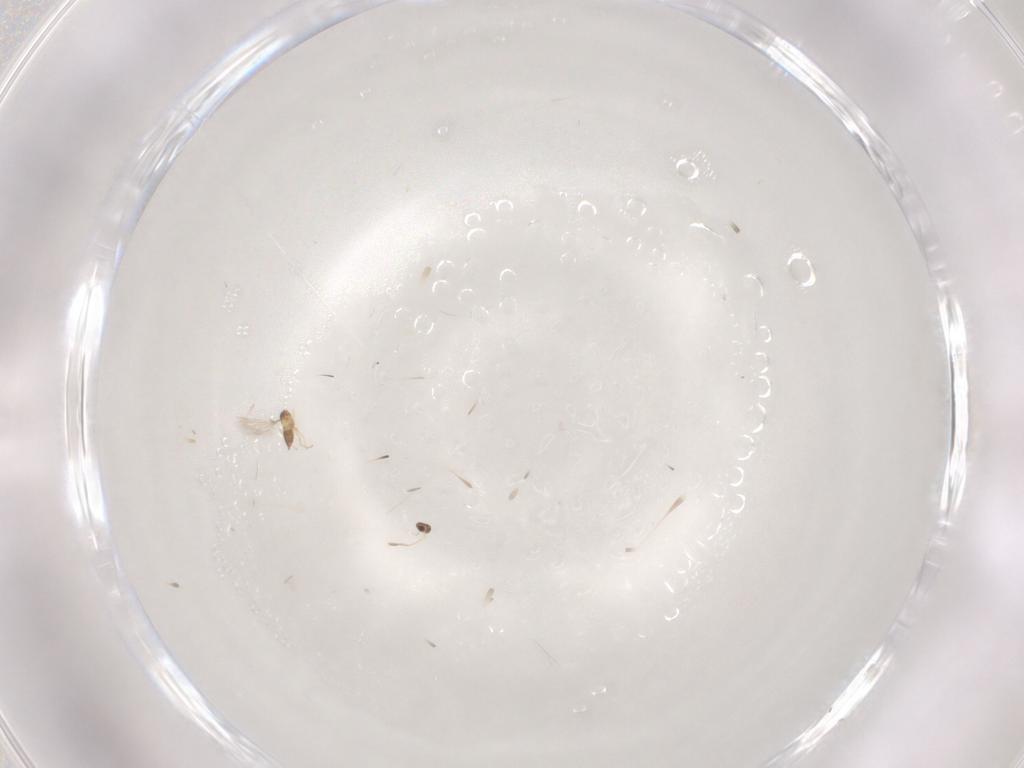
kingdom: Animalia
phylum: Arthropoda
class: Insecta
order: Hymenoptera
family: Mymaridae
